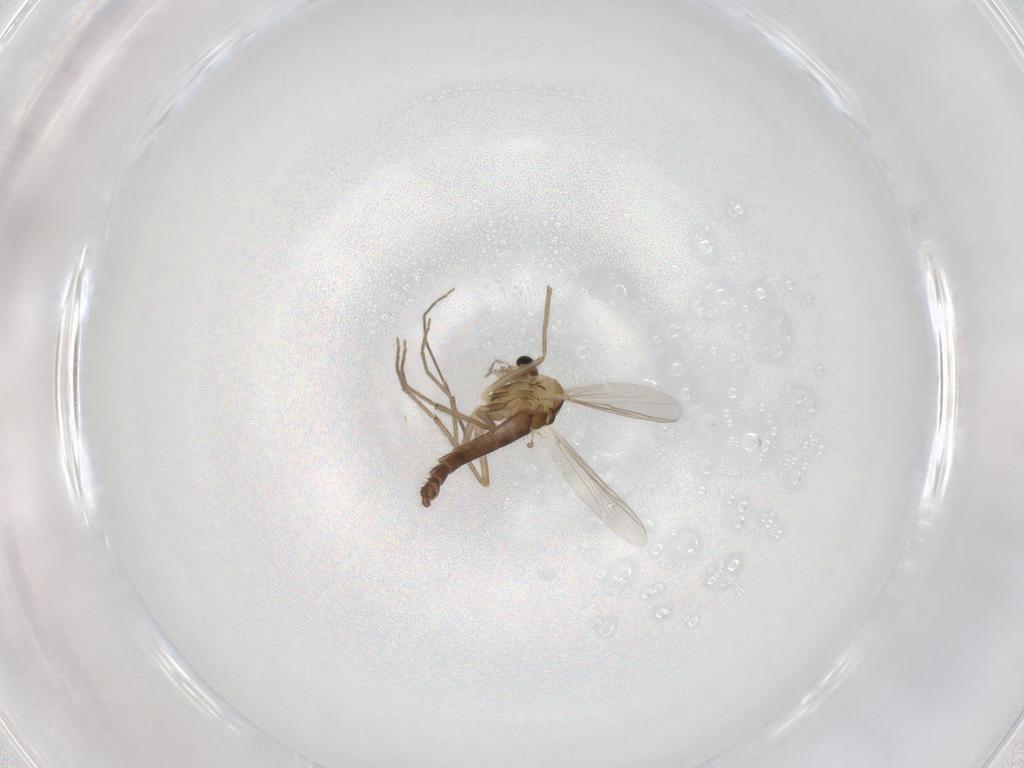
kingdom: Animalia
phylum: Arthropoda
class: Insecta
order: Diptera
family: Chironomidae
